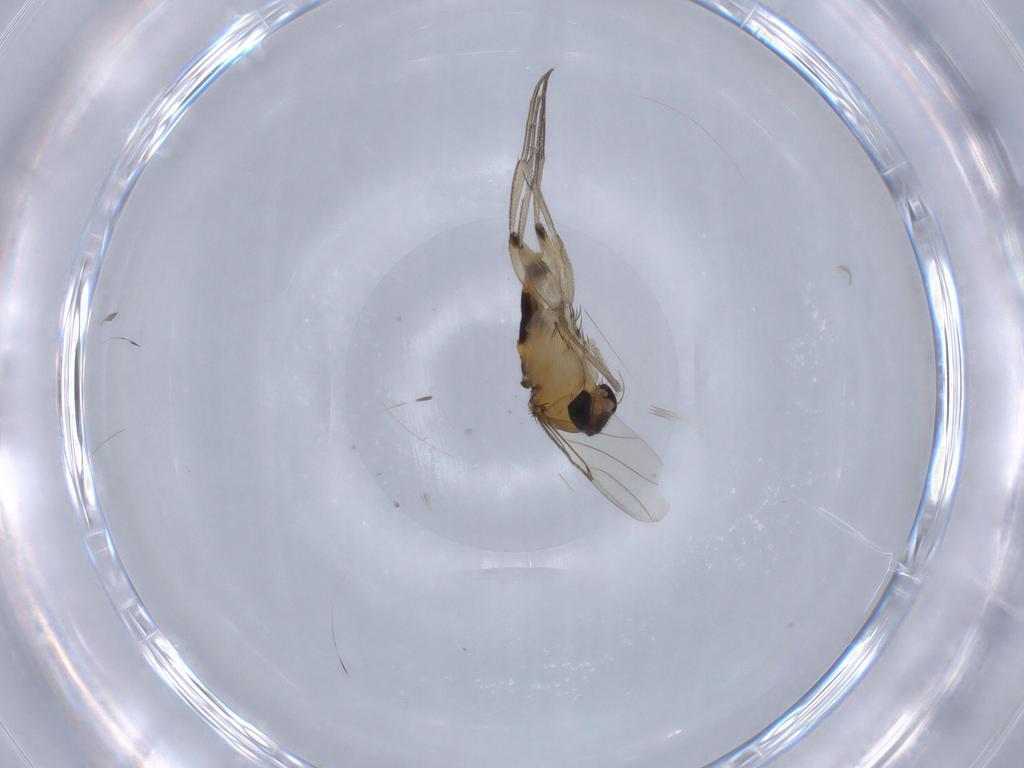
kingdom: Animalia
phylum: Arthropoda
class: Insecta
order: Diptera
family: Phoridae
